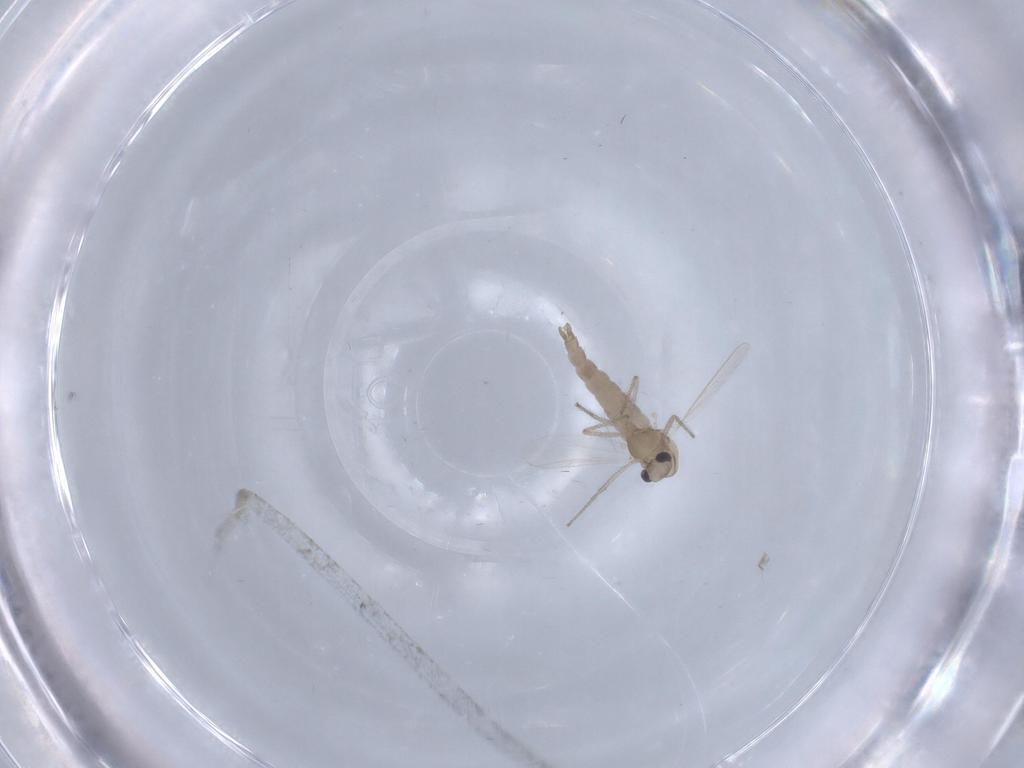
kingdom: Animalia
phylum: Arthropoda
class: Insecta
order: Diptera
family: Chironomidae
